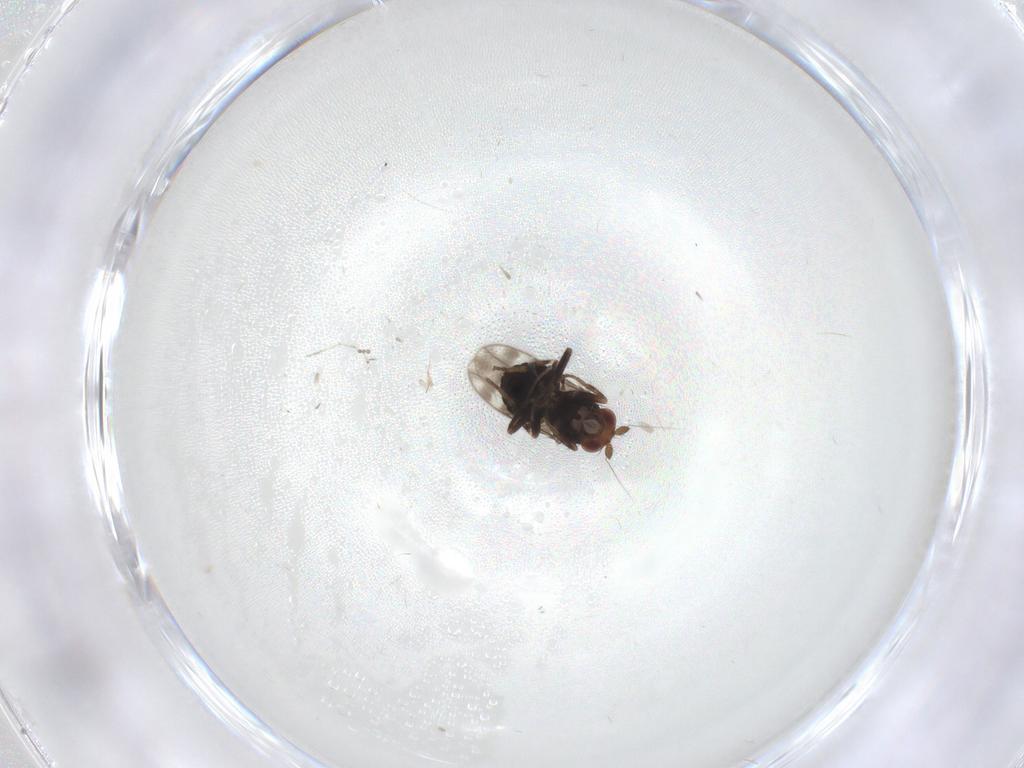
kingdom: Animalia
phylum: Arthropoda
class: Insecta
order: Diptera
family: Sphaeroceridae
